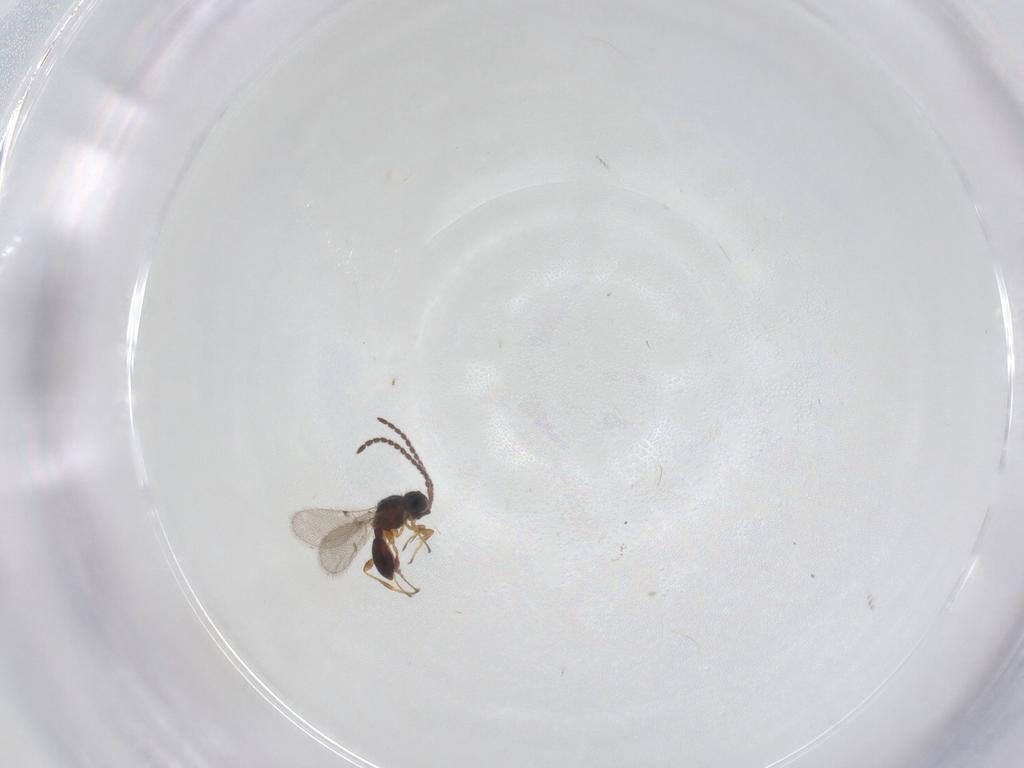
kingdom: Animalia
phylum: Arthropoda
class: Insecta
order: Hymenoptera
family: Diapriidae
